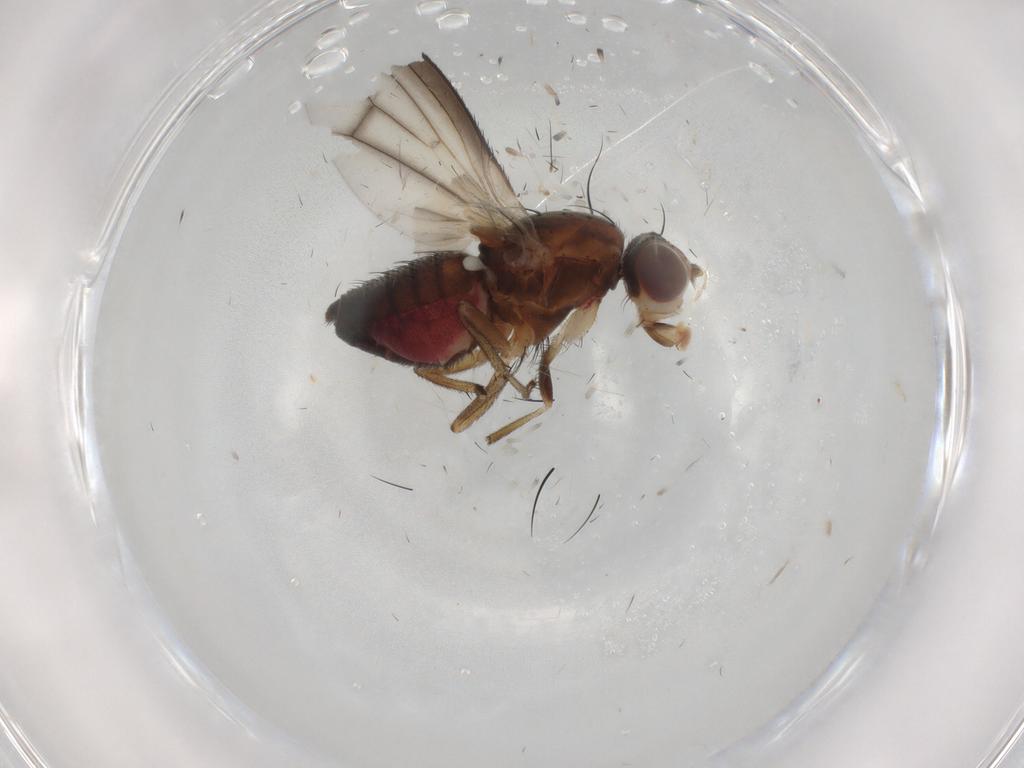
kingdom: Animalia
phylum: Arthropoda
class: Insecta
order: Diptera
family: Heleomyzidae
